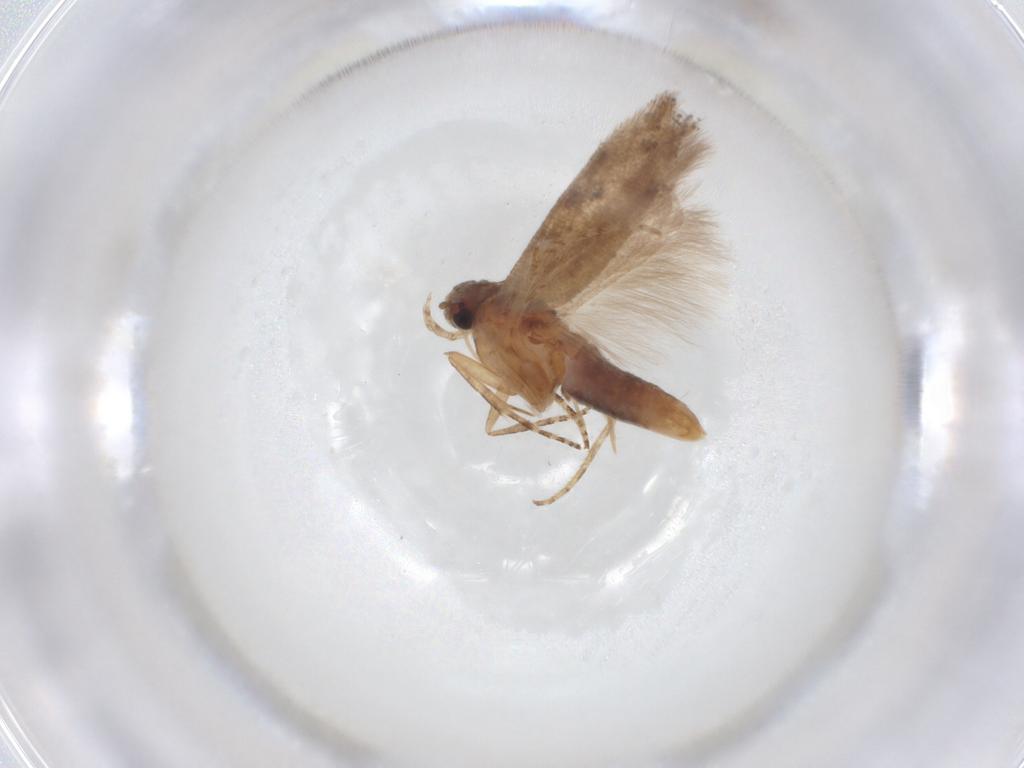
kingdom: Animalia
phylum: Arthropoda
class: Insecta
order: Lepidoptera
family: Gelechiidae
